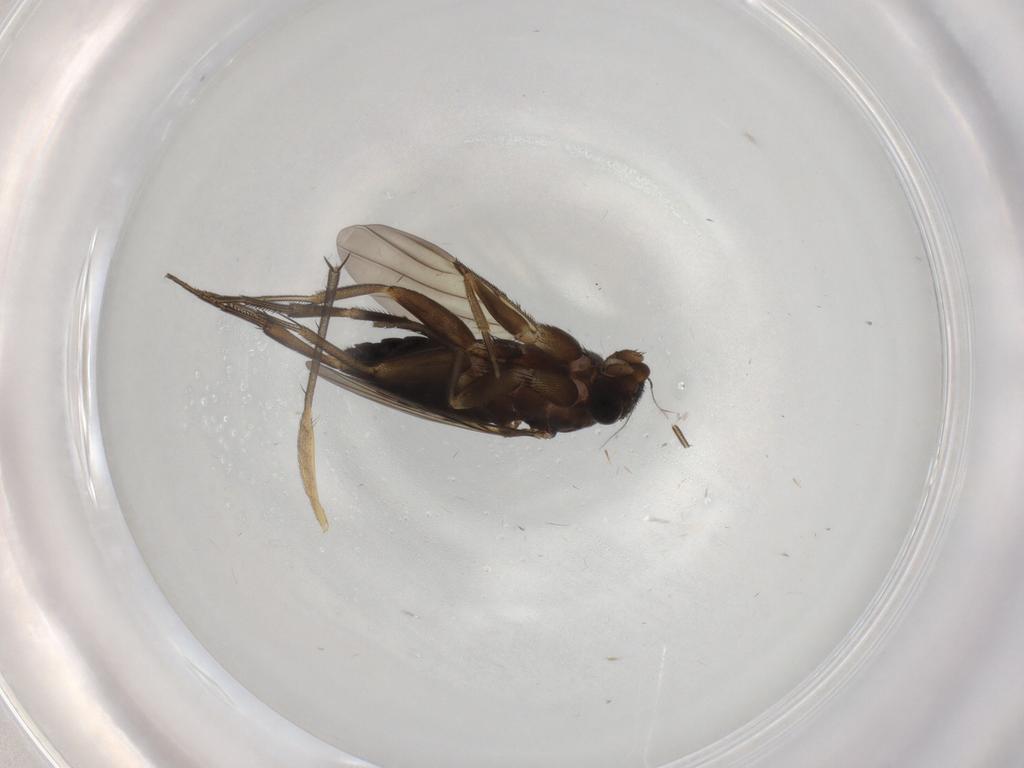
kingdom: Animalia
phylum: Arthropoda
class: Insecta
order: Diptera
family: Phoridae
